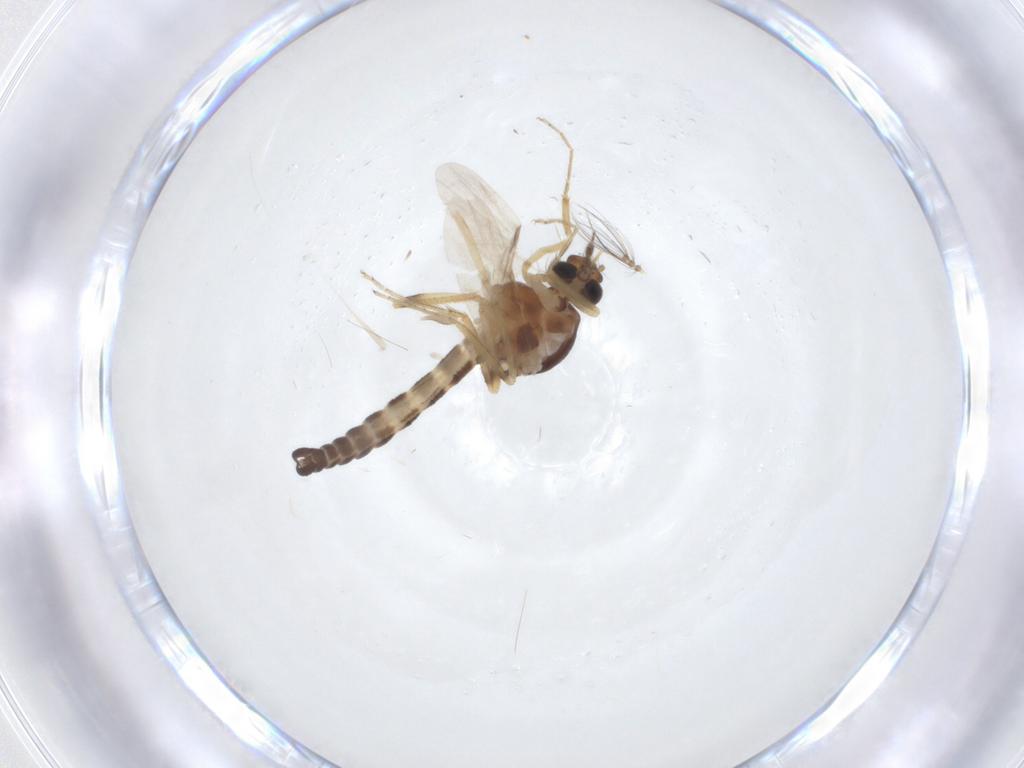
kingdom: Animalia
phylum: Arthropoda
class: Insecta
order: Diptera
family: Ceratopogonidae
